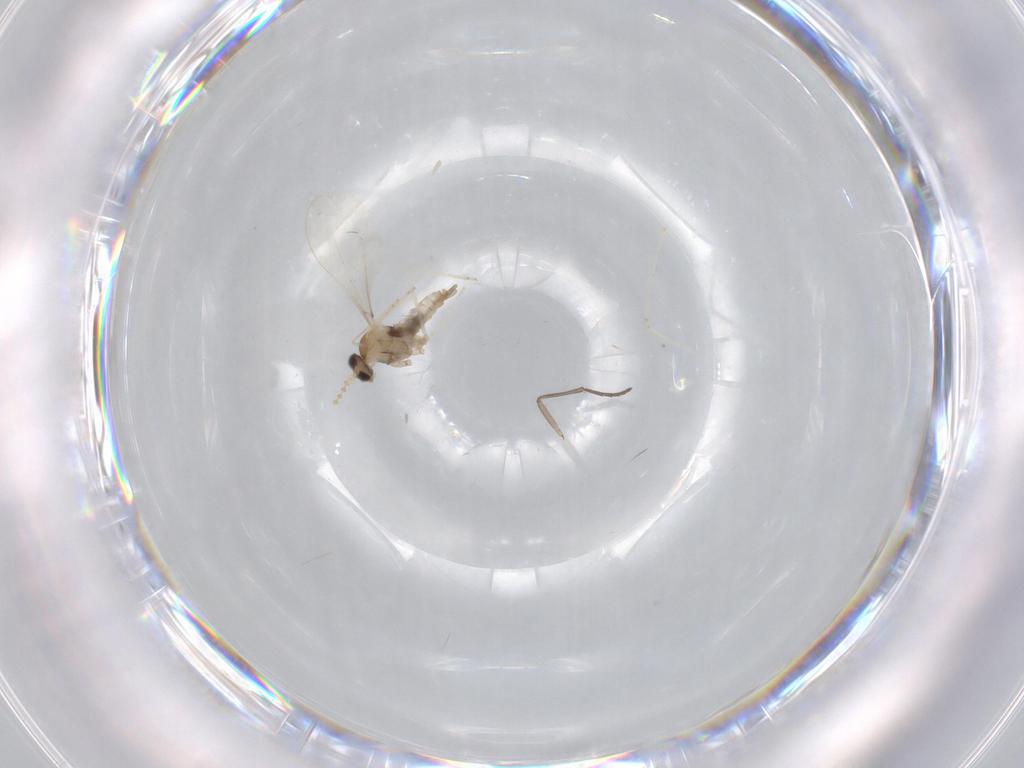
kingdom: Animalia
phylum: Arthropoda
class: Insecta
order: Diptera
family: Sciaridae
